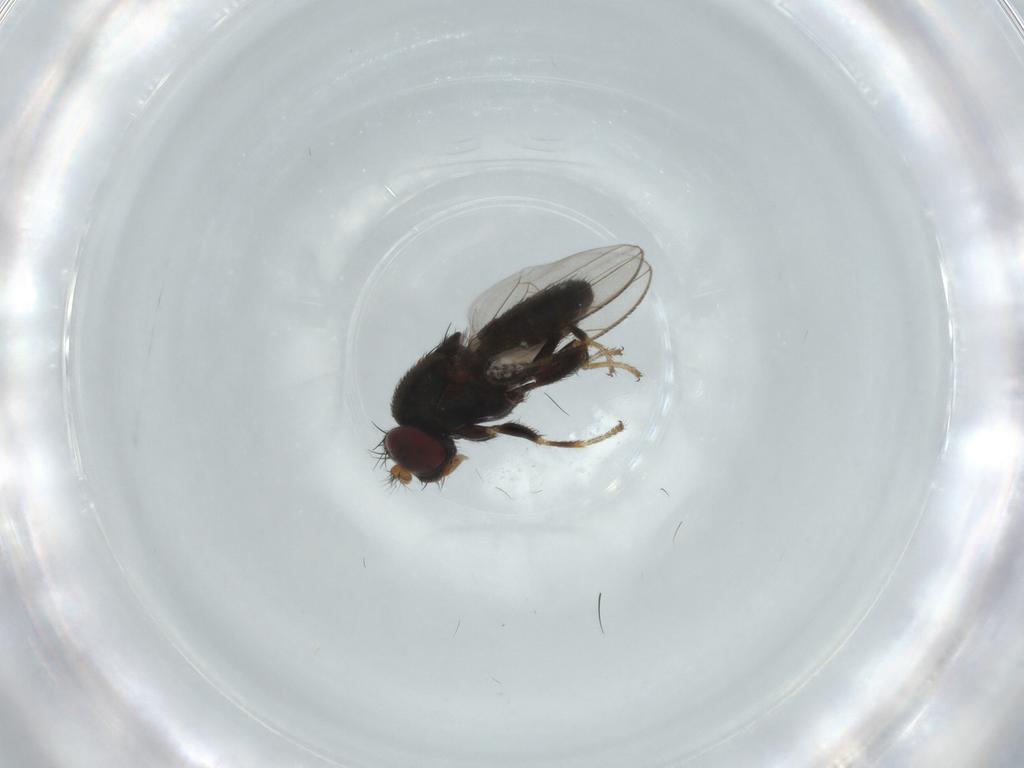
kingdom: Animalia
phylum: Arthropoda
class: Insecta
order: Diptera
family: Ephydridae
